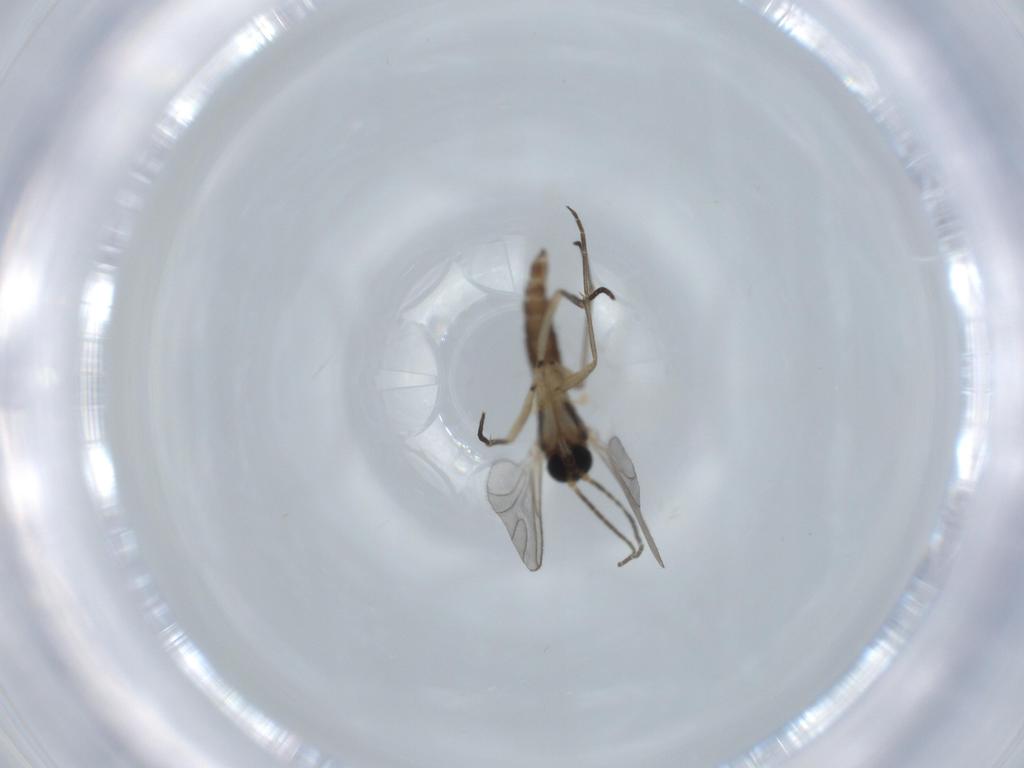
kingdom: Animalia
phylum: Arthropoda
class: Insecta
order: Diptera
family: Sciaridae
